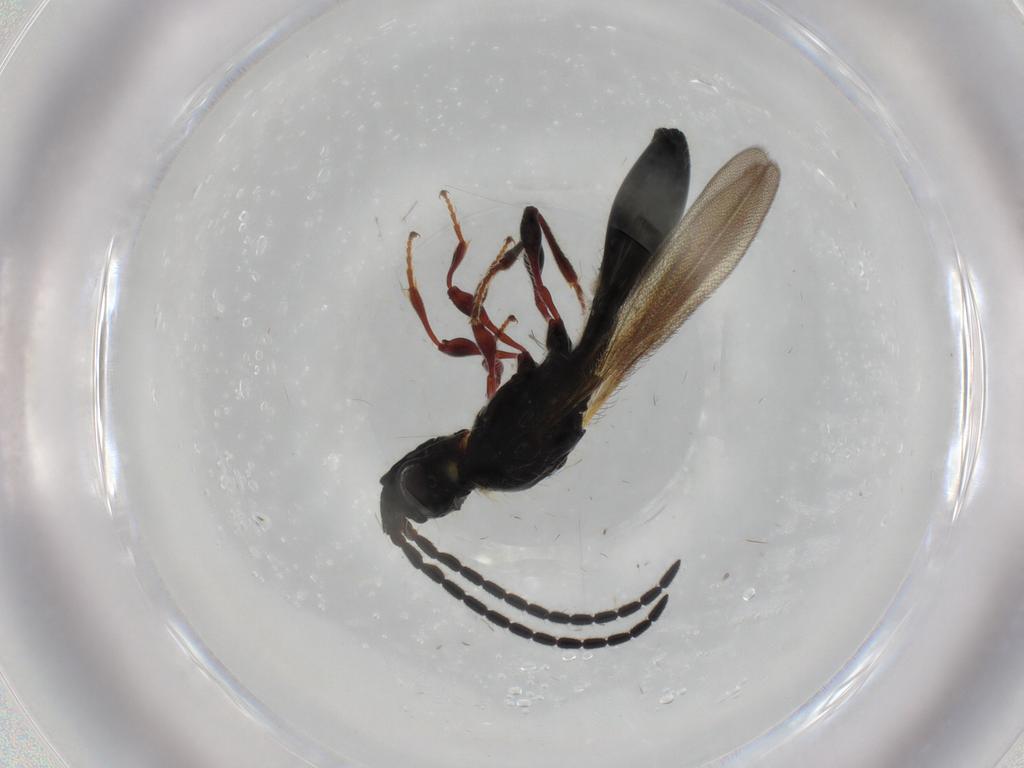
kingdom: Animalia
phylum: Arthropoda
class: Insecta
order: Hymenoptera
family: Diapriidae
